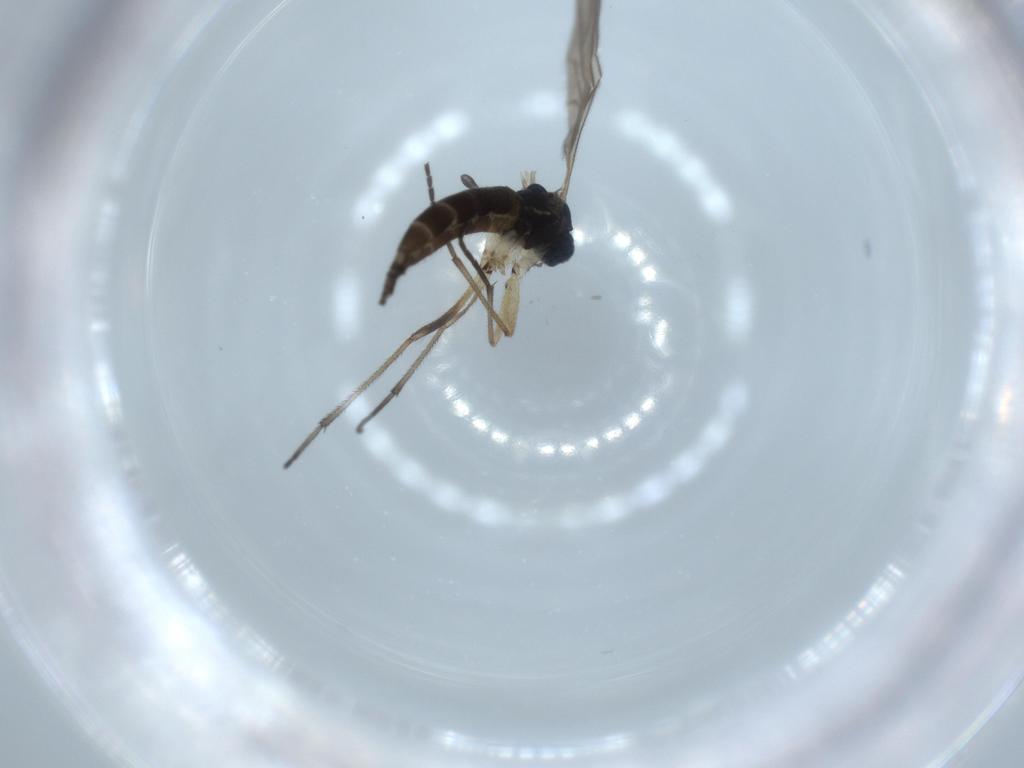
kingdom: Animalia
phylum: Arthropoda
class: Insecta
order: Diptera
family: Sciaridae
